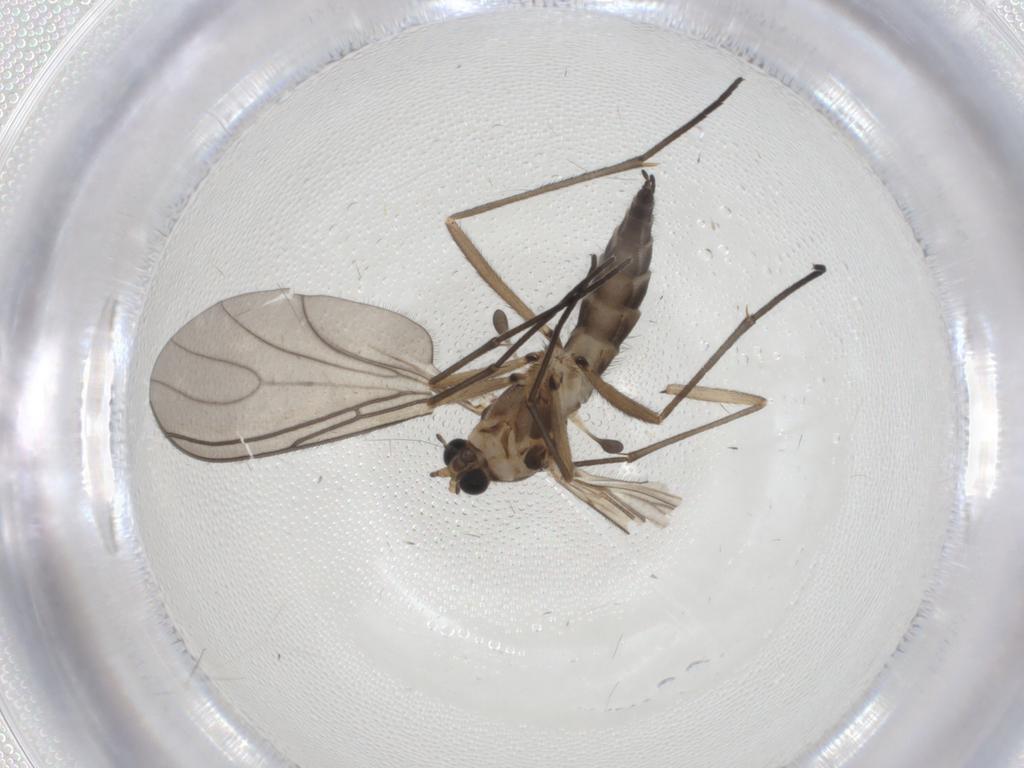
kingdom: Animalia
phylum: Arthropoda
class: Insecta
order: Diptera
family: Sciaridae
